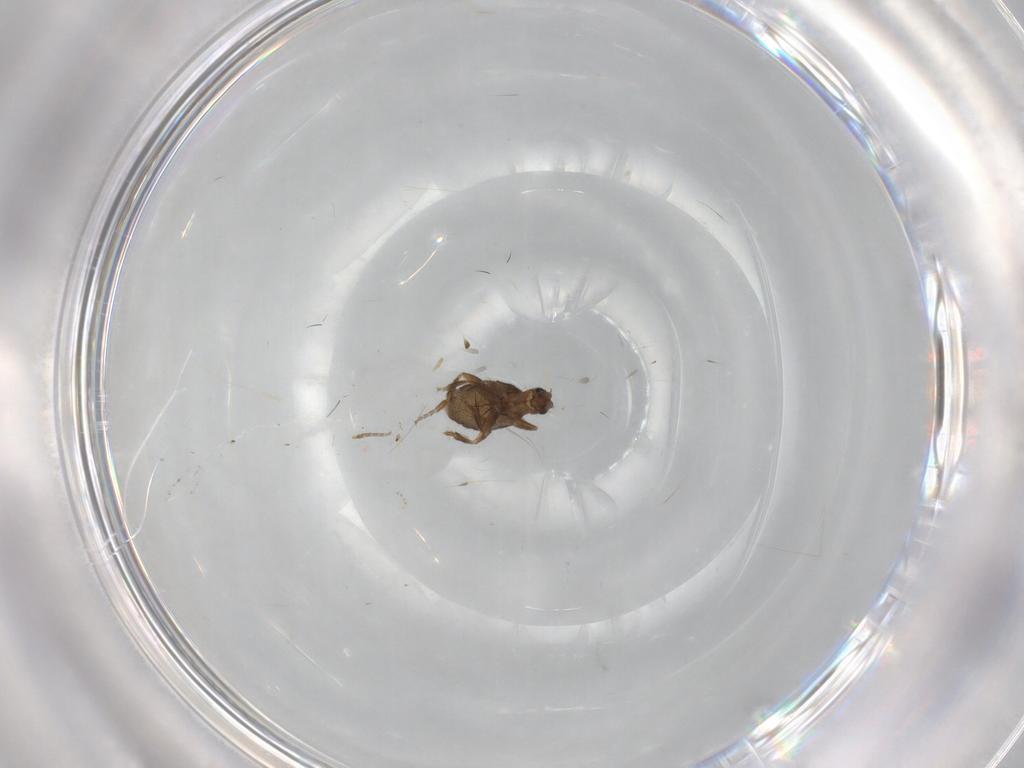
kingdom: Animalia
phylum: Arthropoda
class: Insecta
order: Diptera
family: Phoridae
